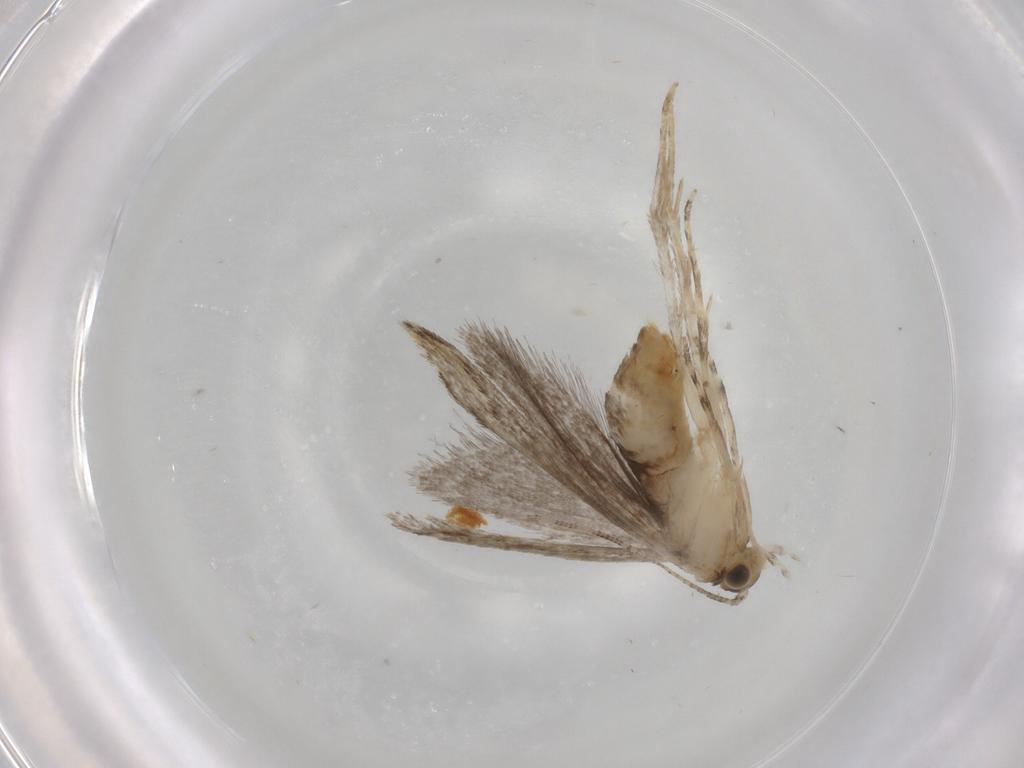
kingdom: Animalia
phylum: Arthropoda
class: Insecta
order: Lepidoptera
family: Tineidae
